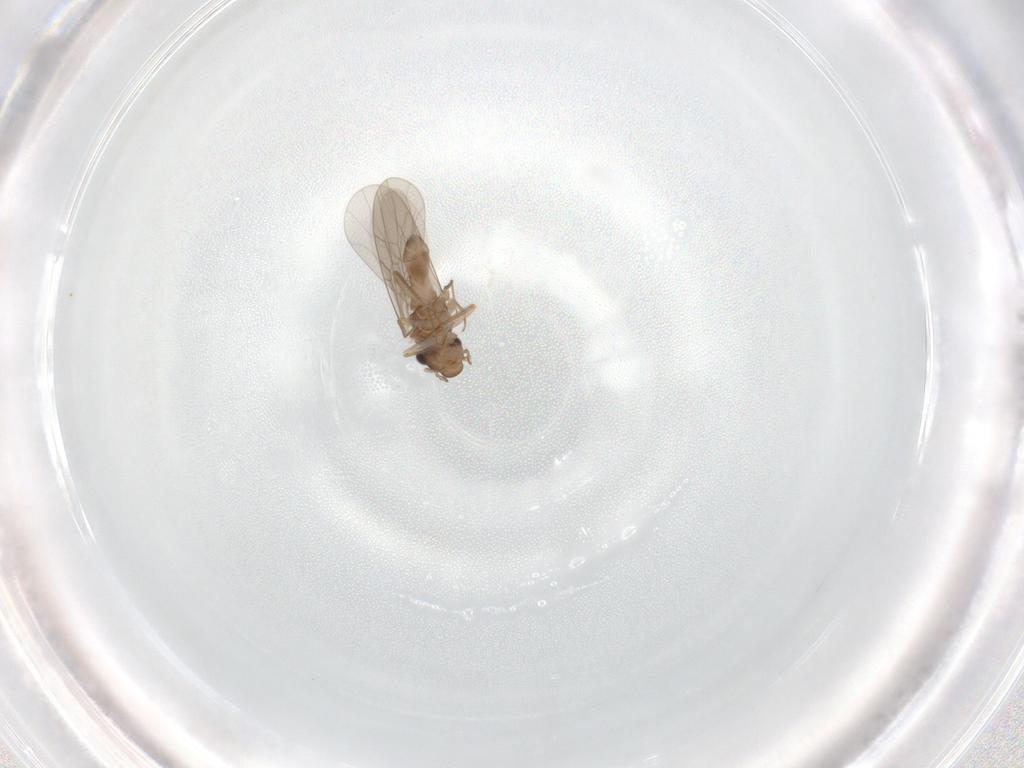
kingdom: Animalia
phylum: Arthropoda
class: Insecta
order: Psocodea
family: Lepidopsocidae
